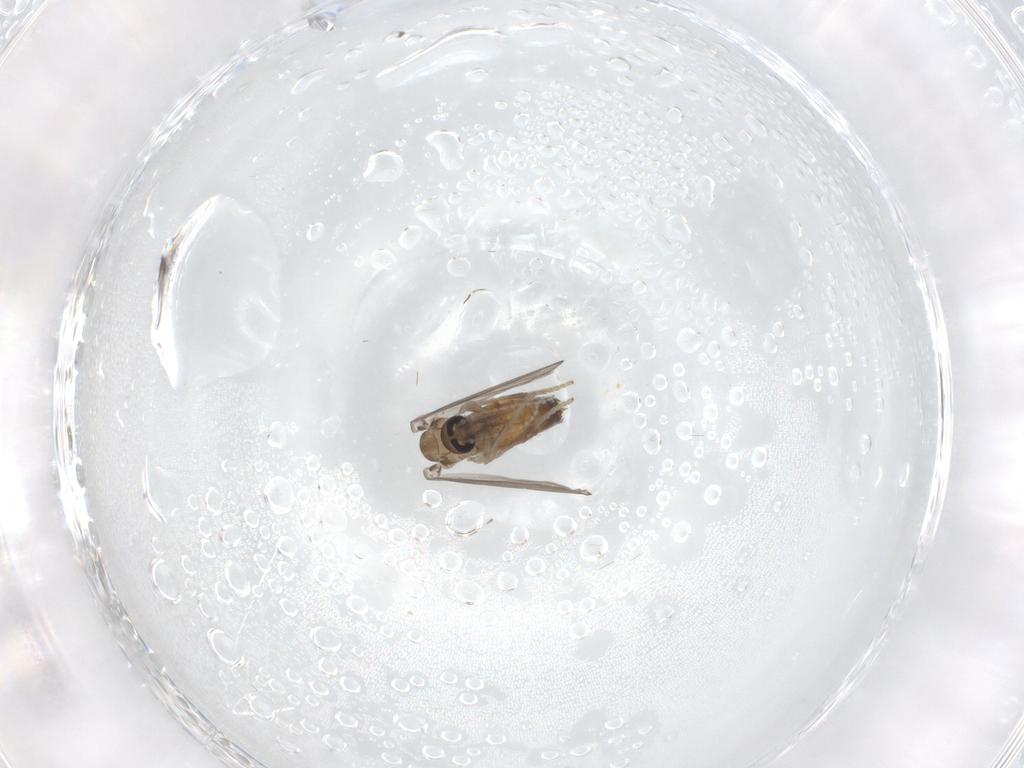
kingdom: Animalia
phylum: Arthropoda
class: Insecta
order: Diptera
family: Psychodidae
